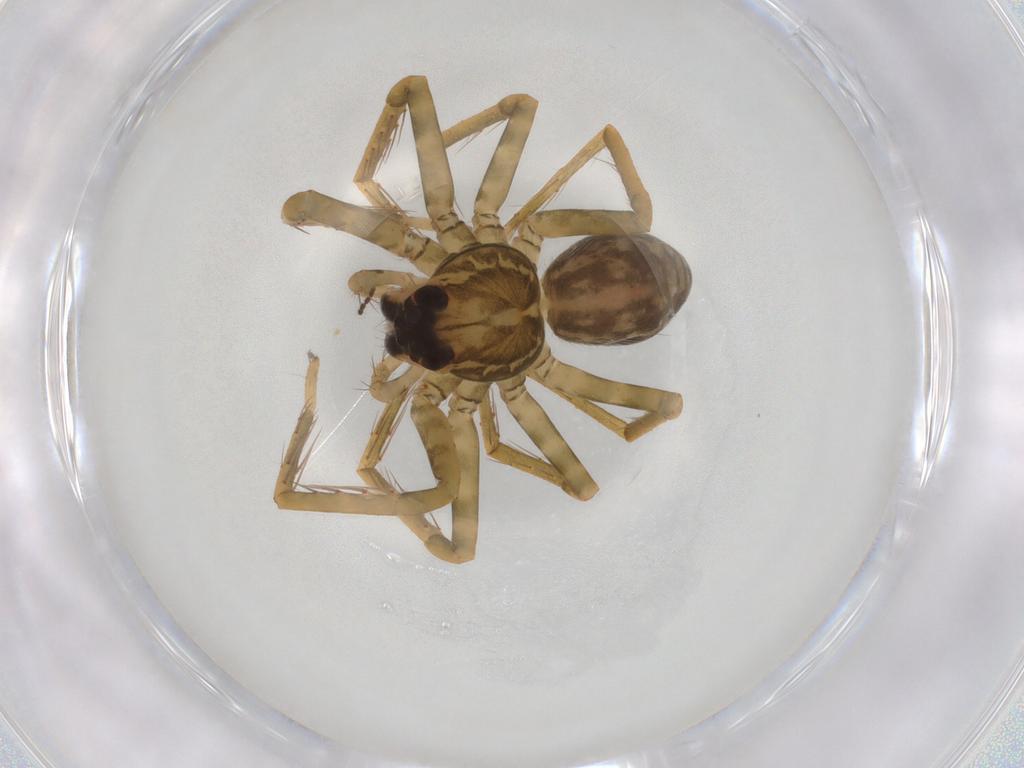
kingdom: Animalia
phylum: Arthropoda
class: Arachnida
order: Araneae
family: Ctenidae
